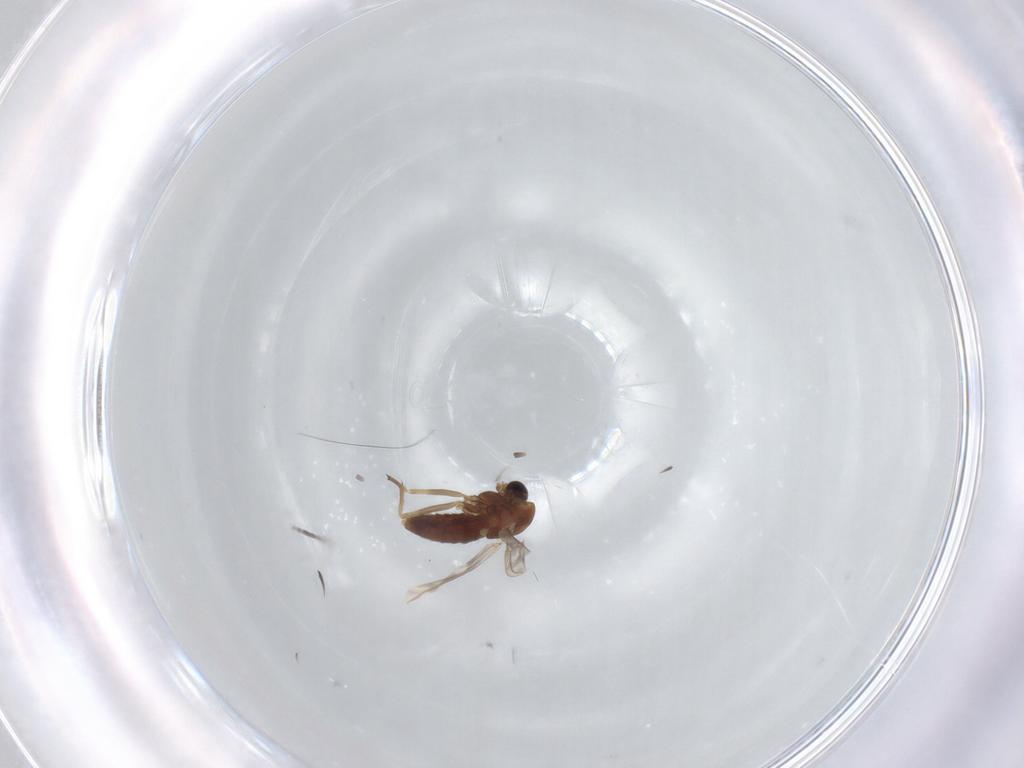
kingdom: Animalia
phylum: Arthropoda
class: Insecta
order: Diptera
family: Chironomidae
